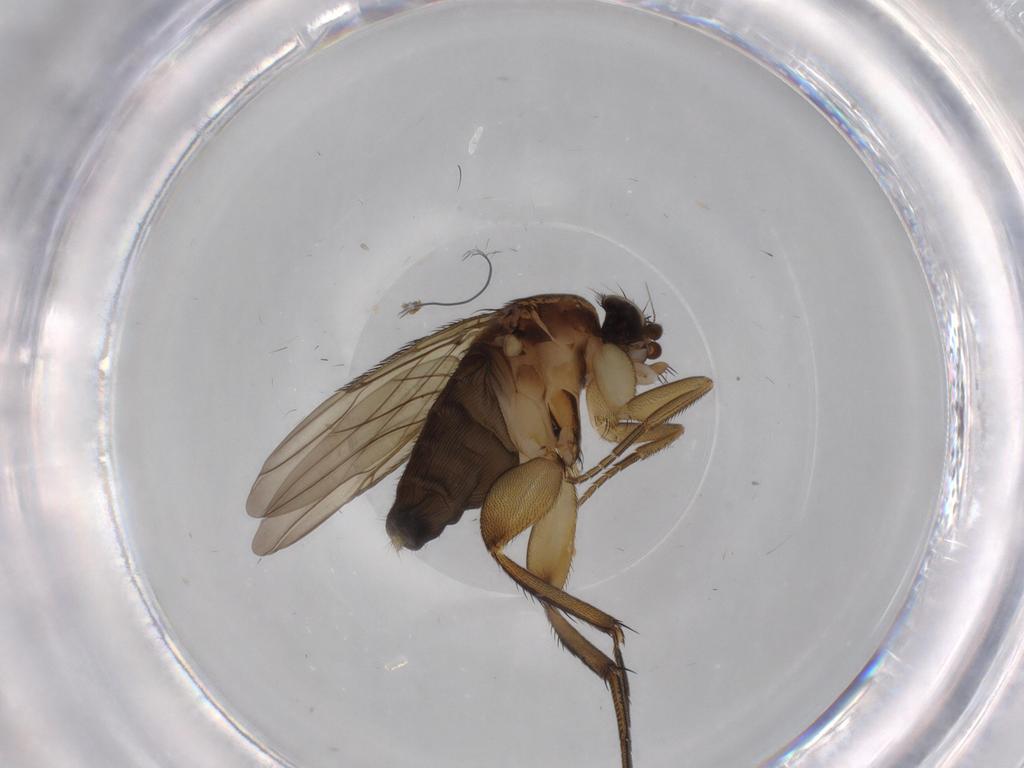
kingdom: Animalia
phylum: Arthropoda
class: Insecta
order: Diptera
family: Phoridae
